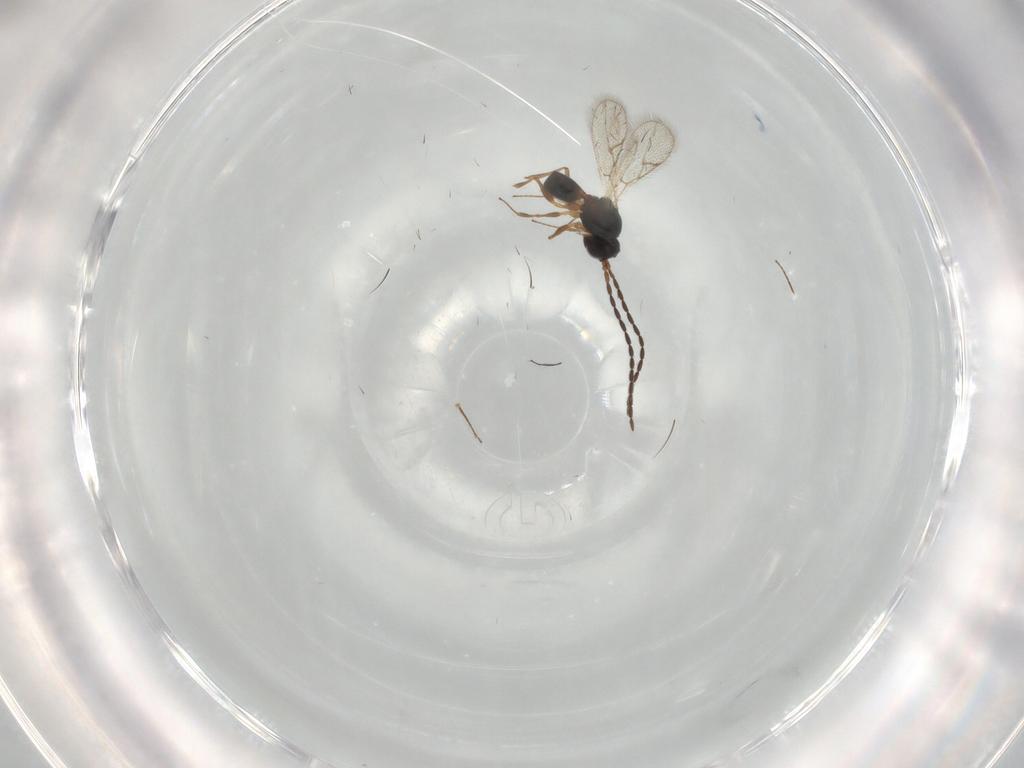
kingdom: Animalia
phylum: Arthropoda
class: Insecta
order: Hymenoptera
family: Figitidae
